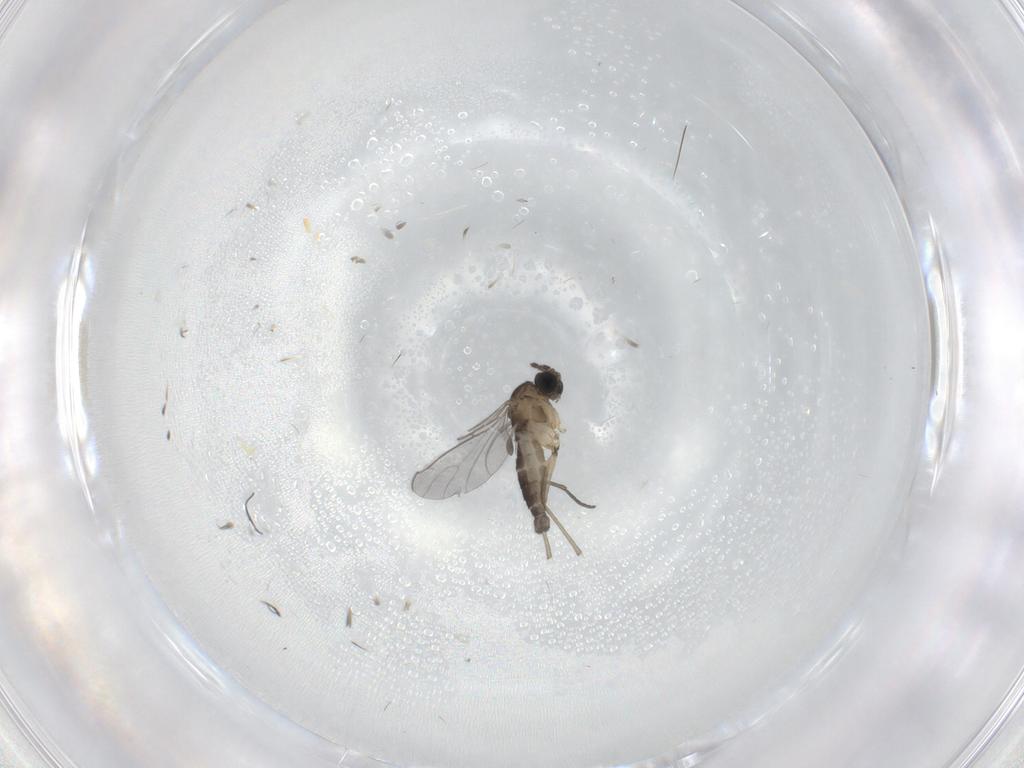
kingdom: Animalia
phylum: Arthropoda
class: Insecta
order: Diptera
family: Sciaridae
